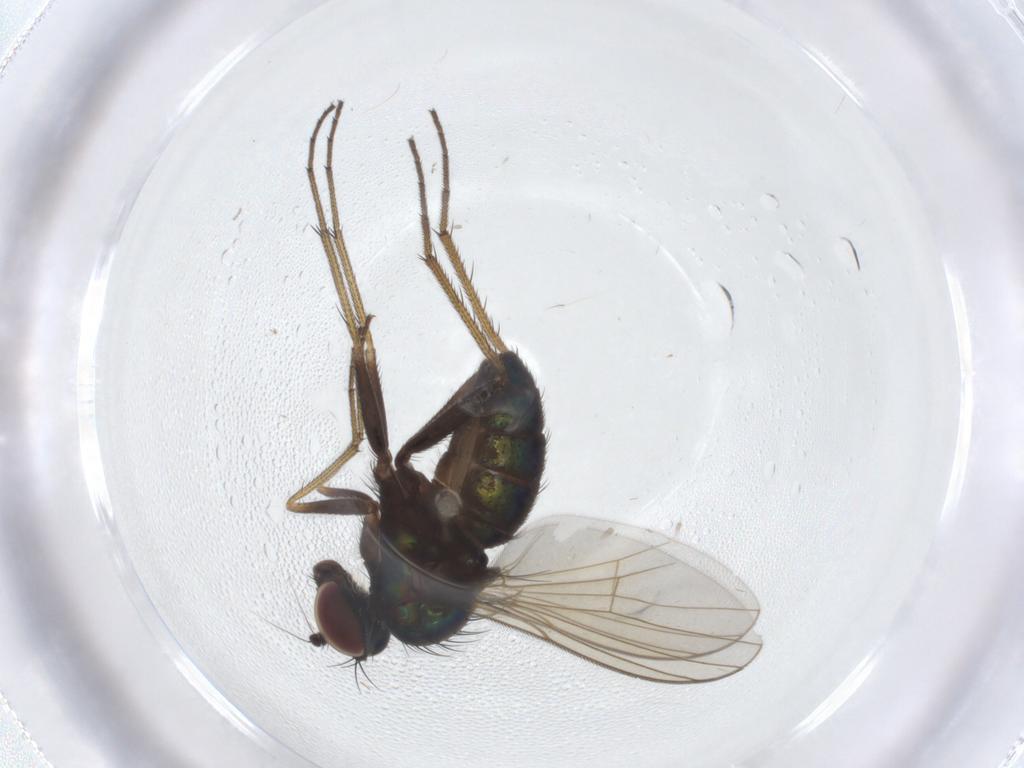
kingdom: Animalia
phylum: Arthropoda
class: Insecta
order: Diptera
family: Dolichopodidae
